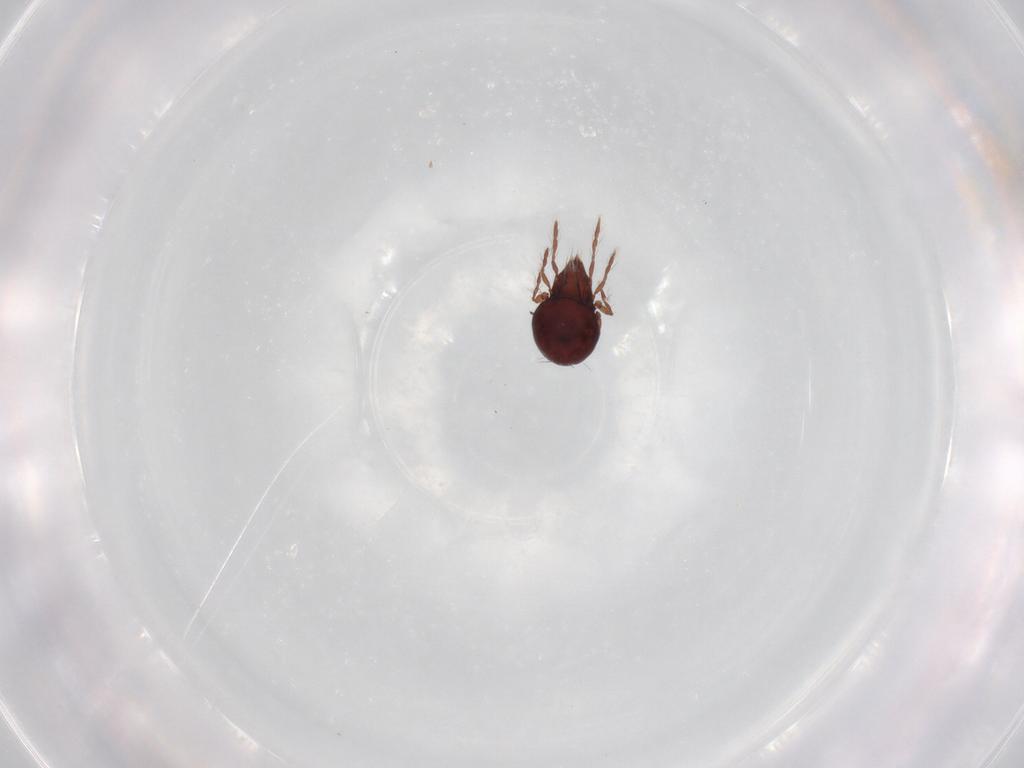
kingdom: Animalia
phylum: Arthropoda
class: Arachnida
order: Sarcoptiformes
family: Ceratoppiidae
